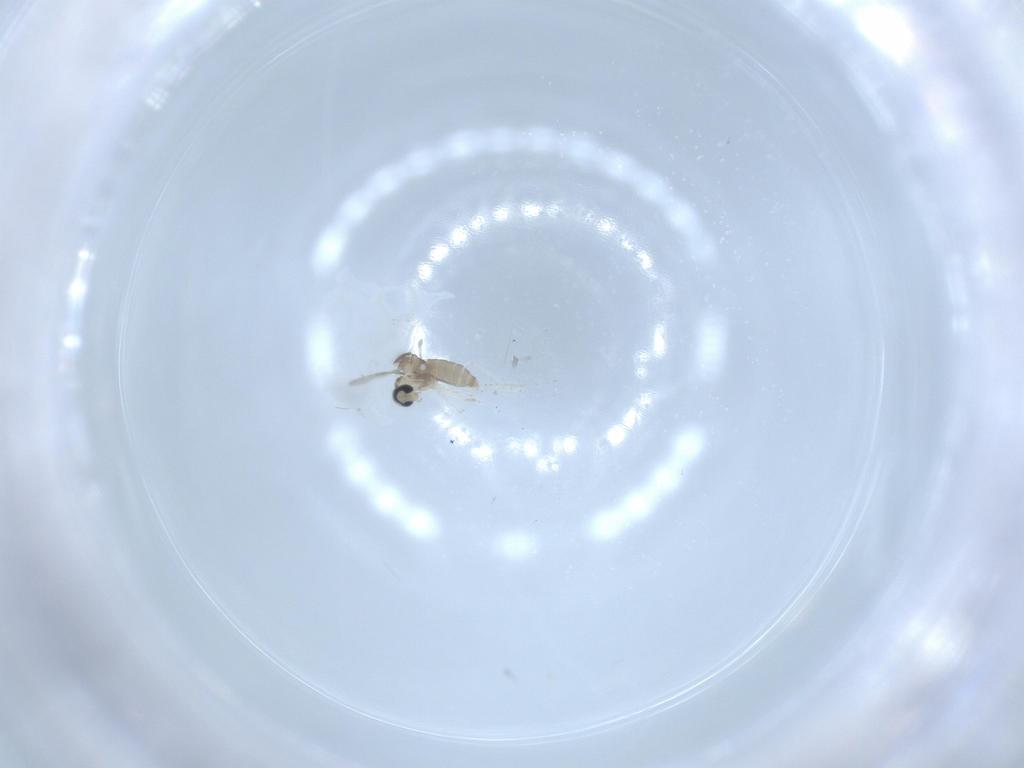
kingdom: Animalia
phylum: Arthropoda
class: Insecta
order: Diptera
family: Cecidomyiidae
